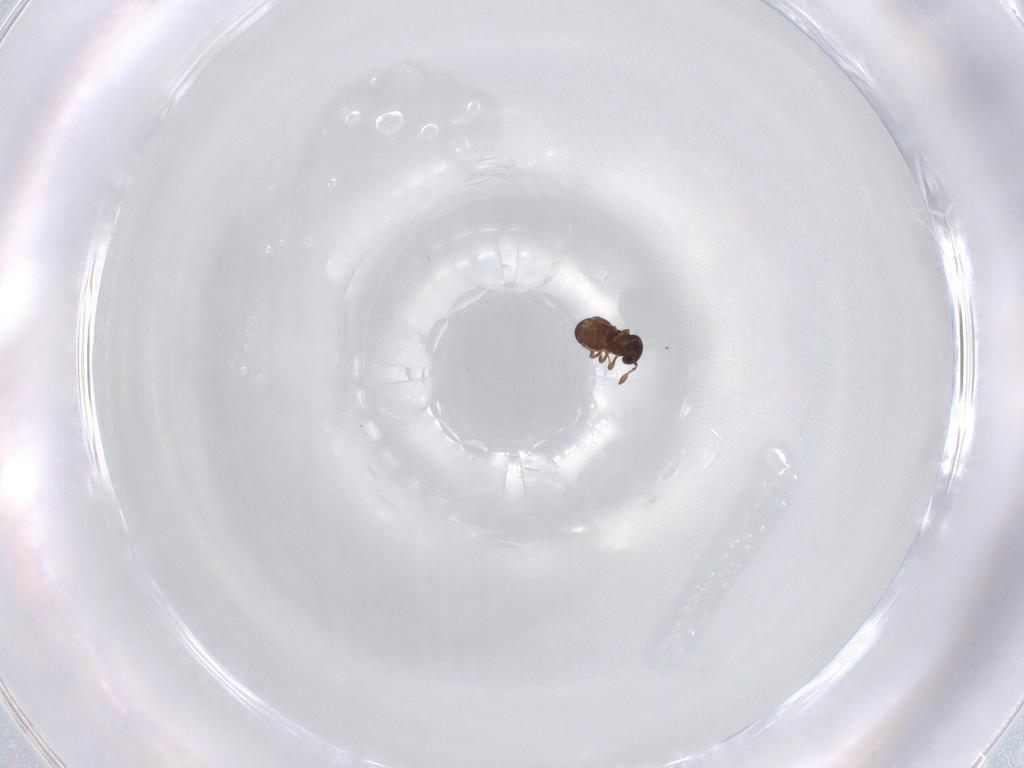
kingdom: Animalia
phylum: Arthropoda
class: Insecta
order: Hymenoptera
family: Scelionidae
